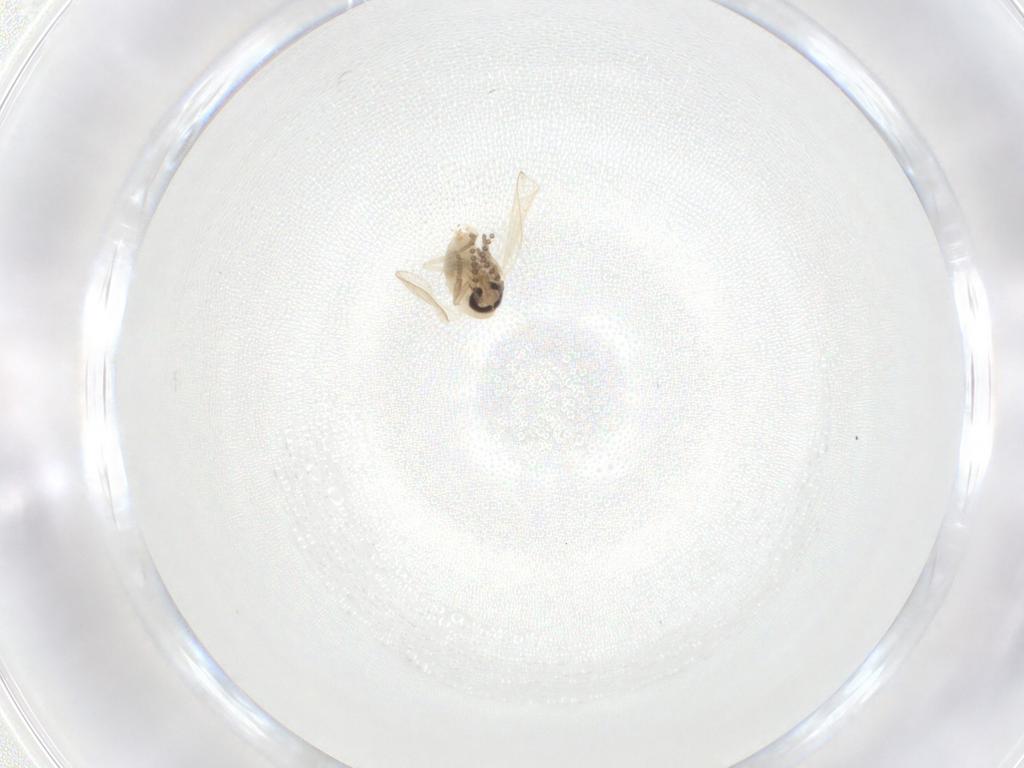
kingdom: Animalia
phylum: Arthropoda
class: Insecta
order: Diptera
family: Psychodidae
